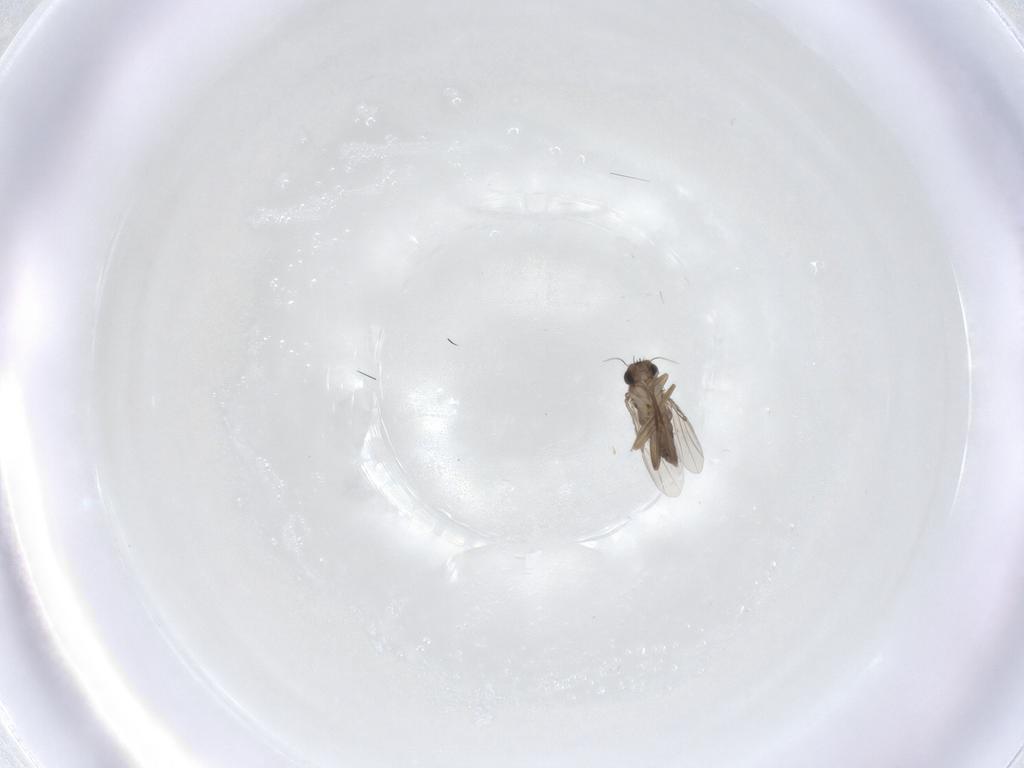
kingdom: Animalia
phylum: Arthropoda
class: Insecta
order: Diptera
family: Phoridae
